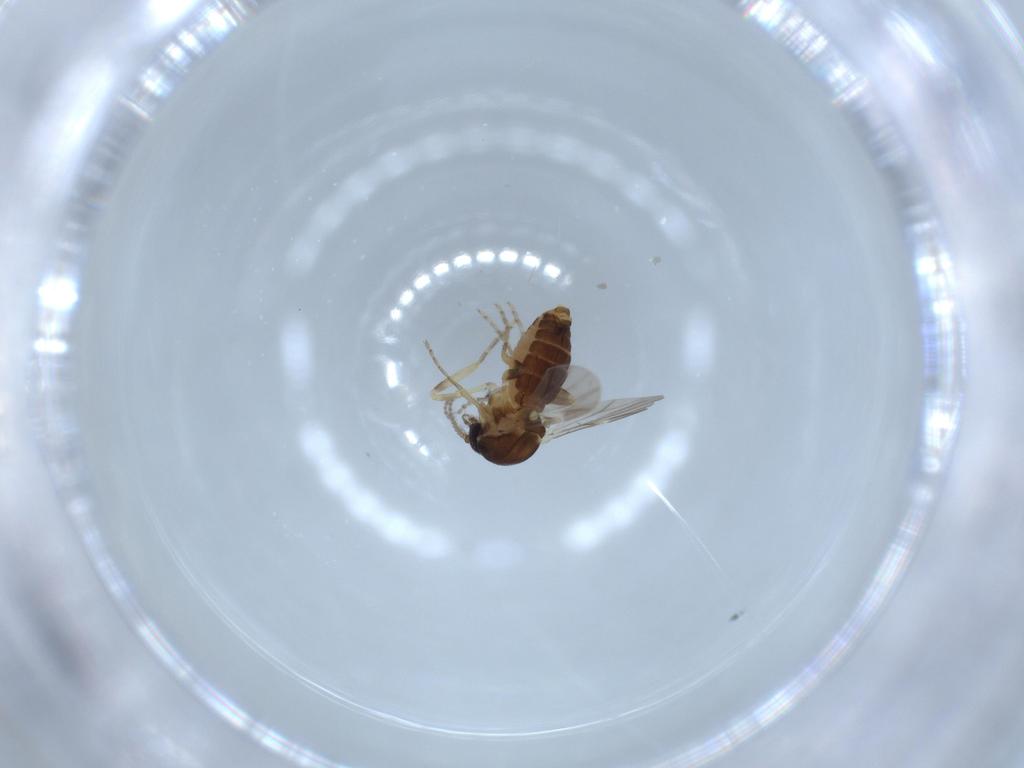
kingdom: Animalia
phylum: Arthropoda
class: Insecta
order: Diptera
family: Ceratopogonidae
